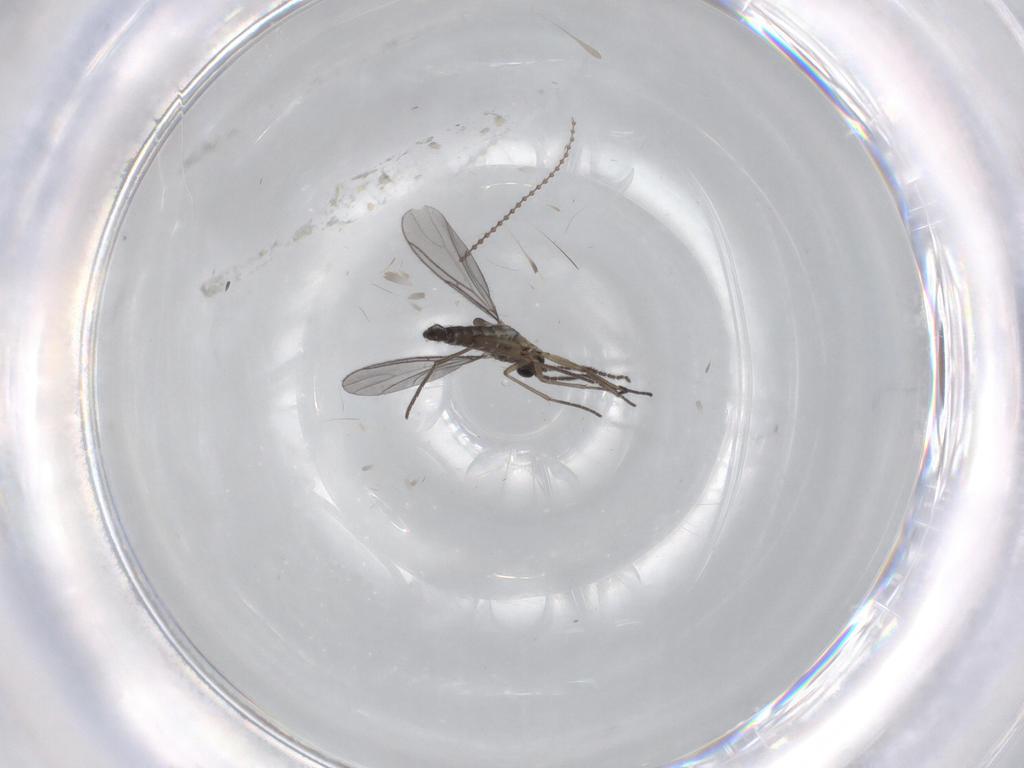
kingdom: Animalia
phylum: Arthropoda
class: Insecta
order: Diptera
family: Cecidomyiidae
